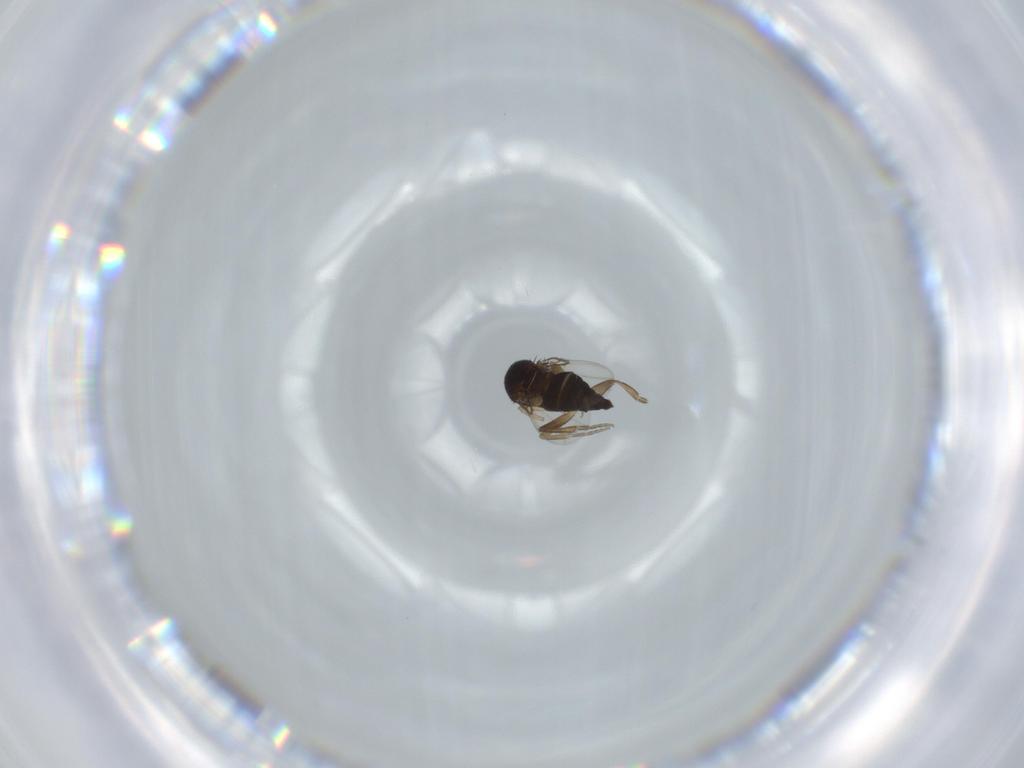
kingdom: Animalia
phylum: Arthropoda
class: Insecta
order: Diptera
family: Phoridae
